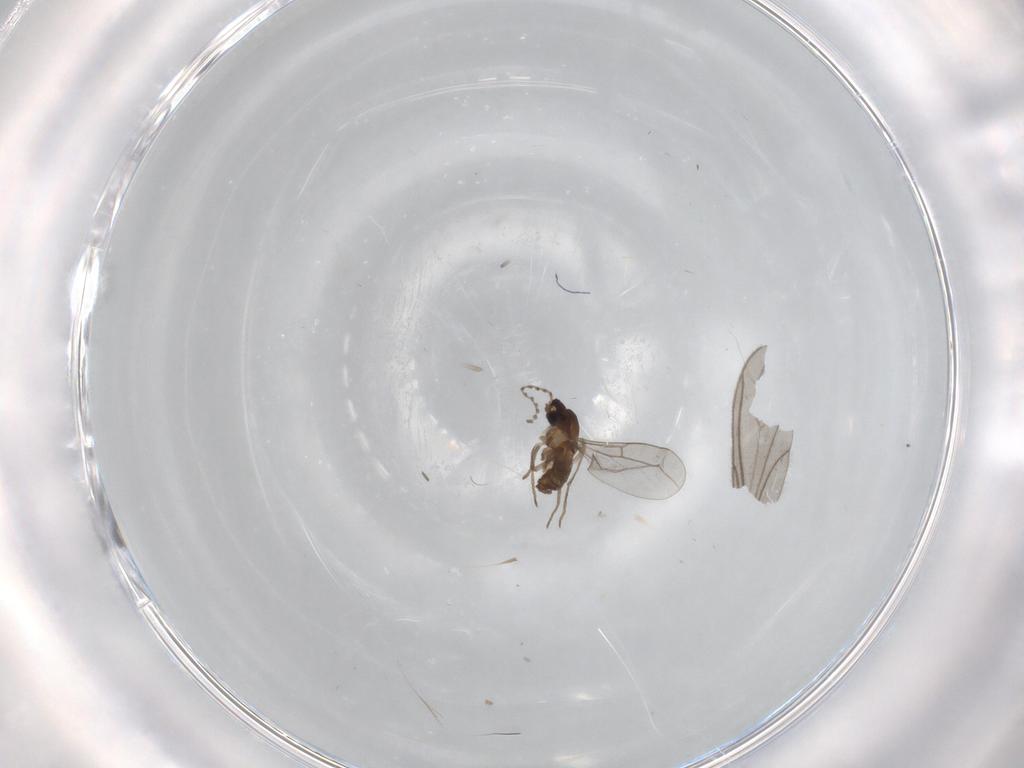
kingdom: Animalia
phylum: Arthropoda
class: Insecta
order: Diptera
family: Cecidomyiidae
